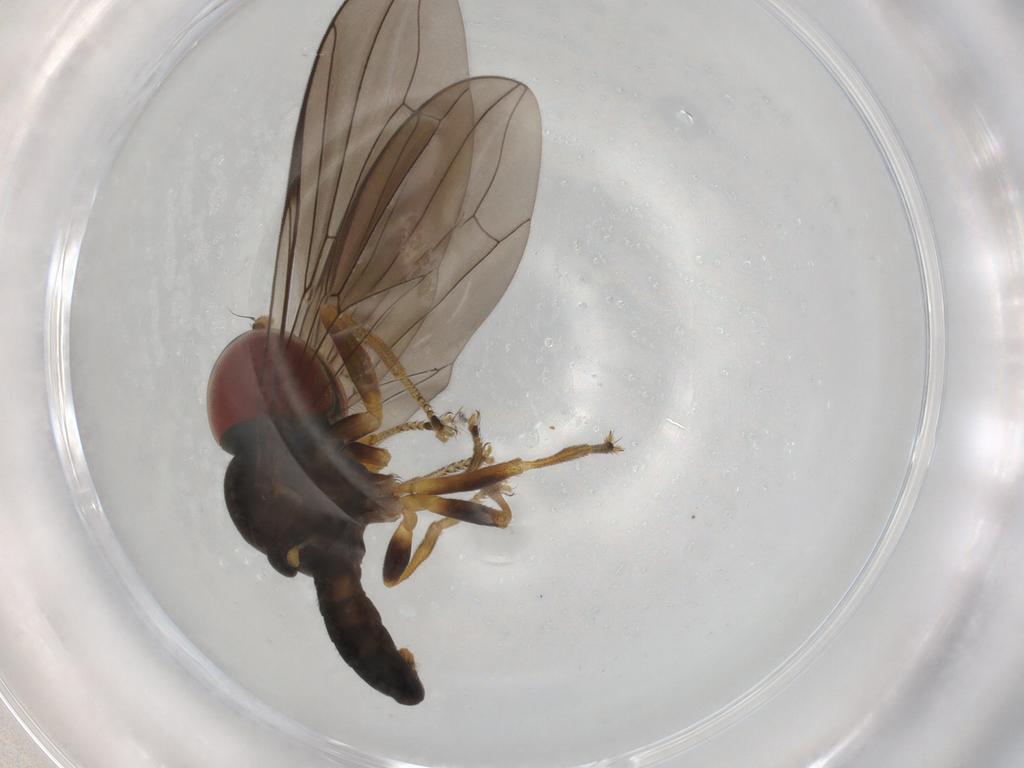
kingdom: Animalia
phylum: Arthropoda
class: Insecta
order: Diptera
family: Pipunculidae
